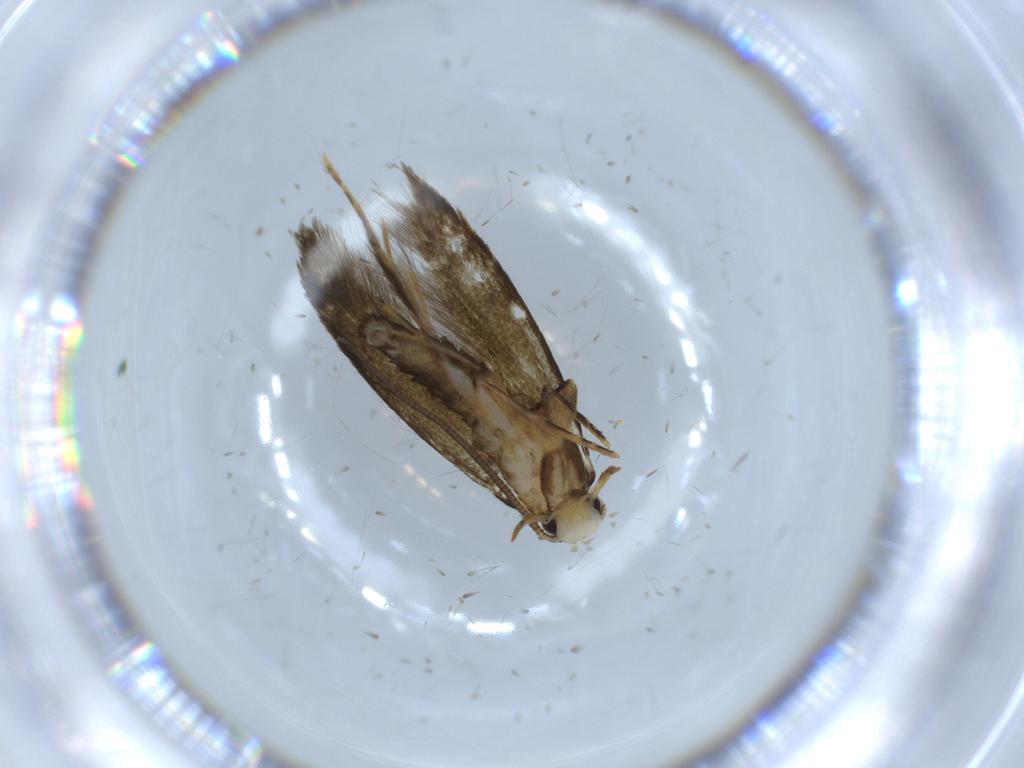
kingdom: Animalia
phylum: Arthropoda
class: Insecta
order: Lepidoptera
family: Tineidae
